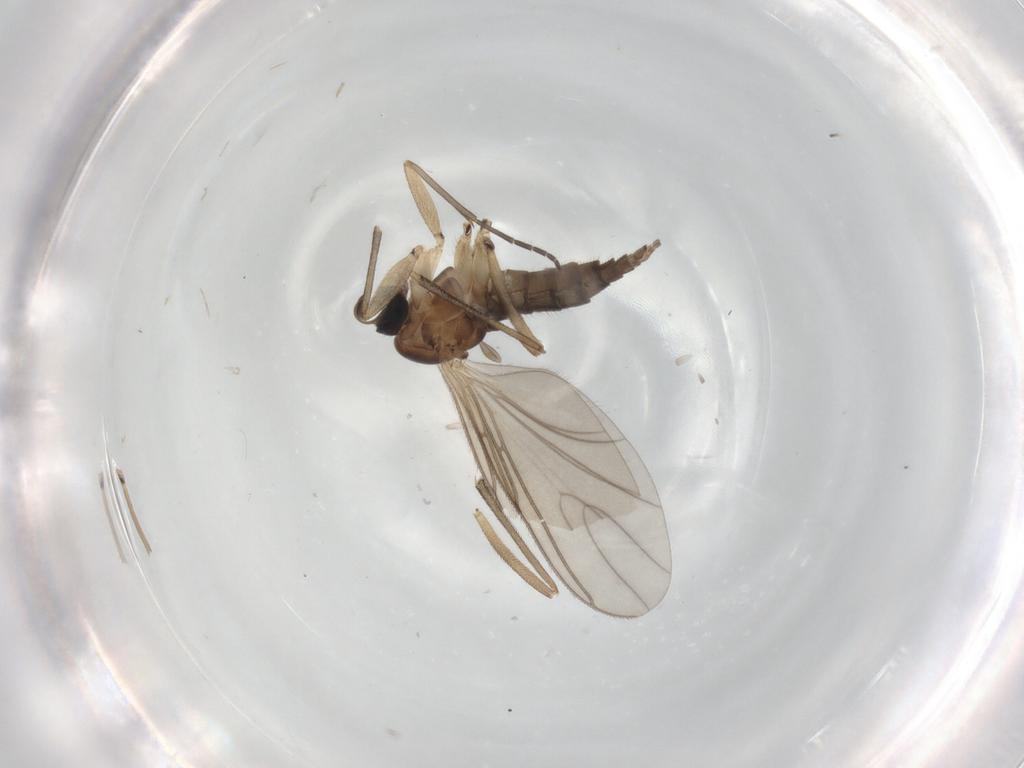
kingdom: Animalia
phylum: Arthropoda
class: Insecta
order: Diptera
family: Sciaridae
